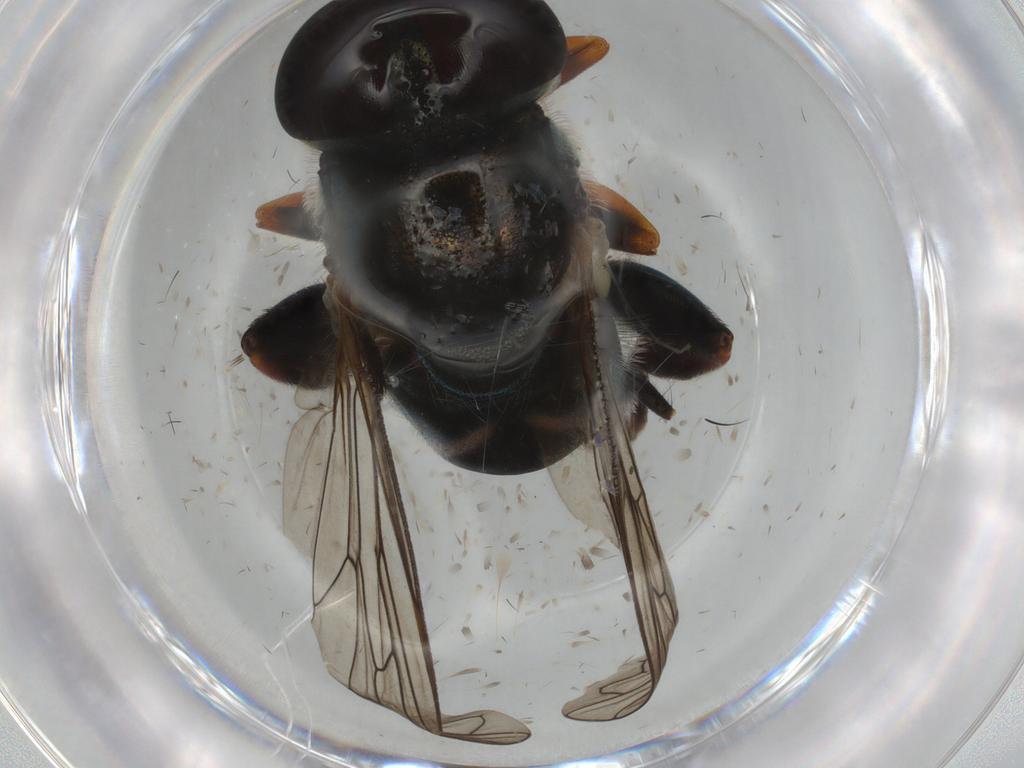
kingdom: Animalia
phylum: Arthropoda
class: Insecta
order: Diptera
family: Syrphidae
